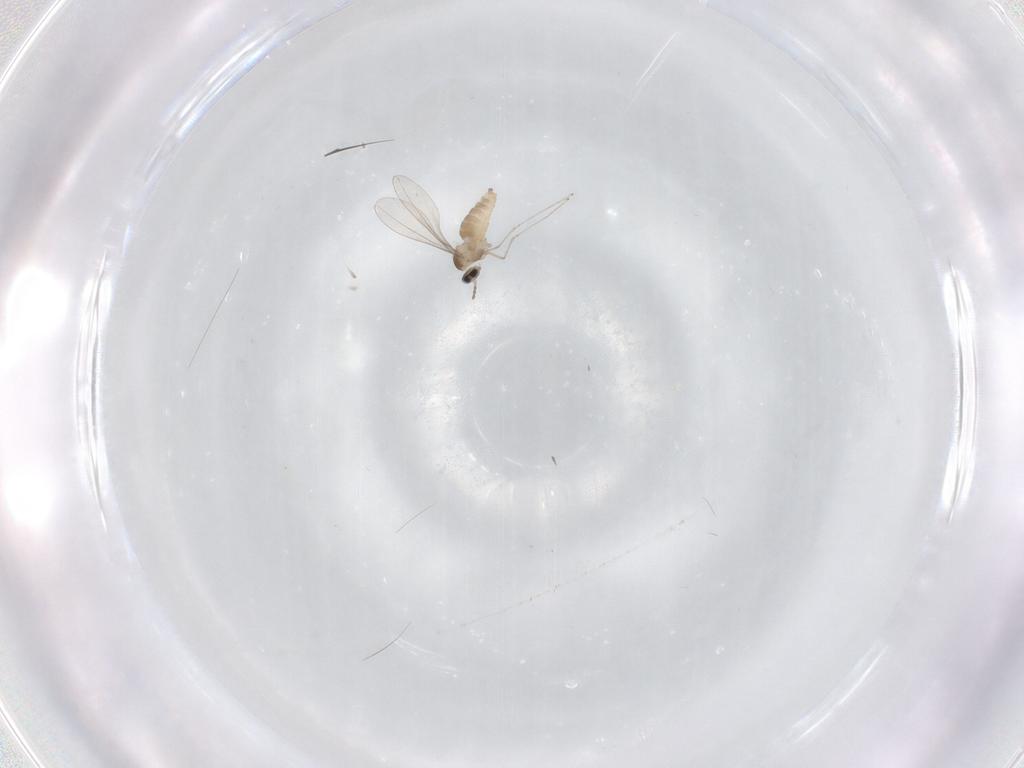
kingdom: Animalia
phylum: Arthropoda
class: Insecta
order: Diptera
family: Cecidomyiidae
